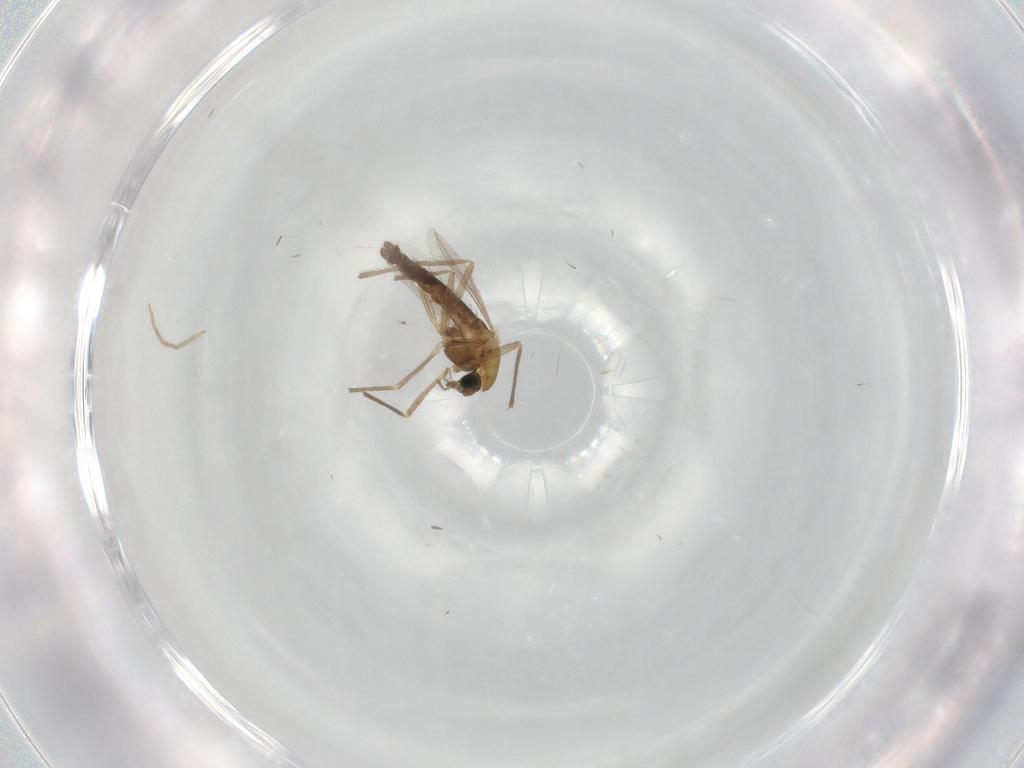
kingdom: Animalia
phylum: Arthropoda
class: Insecta
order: Diptera
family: Chironomidae
